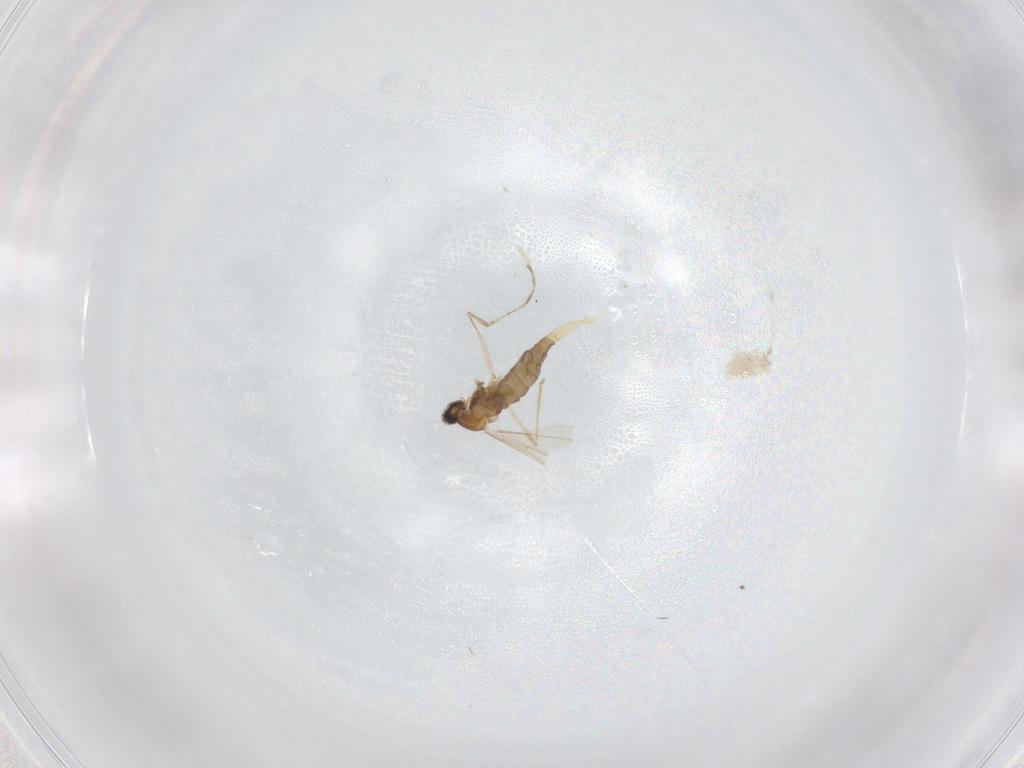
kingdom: Animalia
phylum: Arthropoda
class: Insecta
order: Diptera
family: Cecidomyiidae
